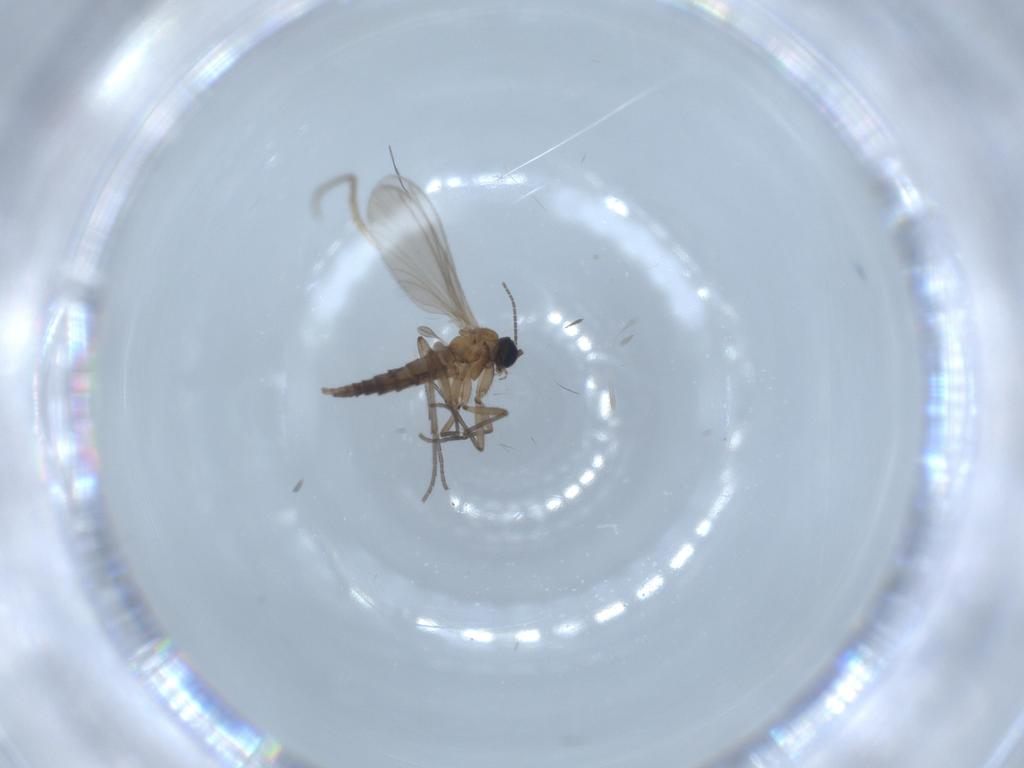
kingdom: Animalia
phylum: Arthropoda
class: Insecta
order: Diptera
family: Sciaridae
